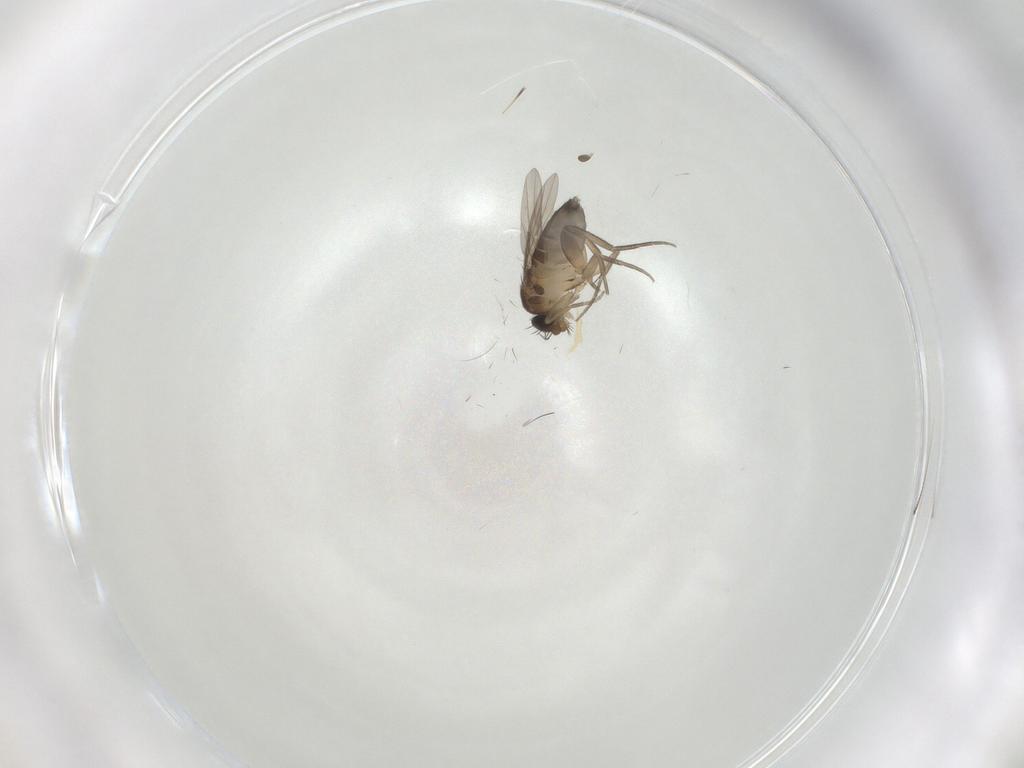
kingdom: Animalia
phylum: Arthropoda
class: Insecta
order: Diptera
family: Phoridae
